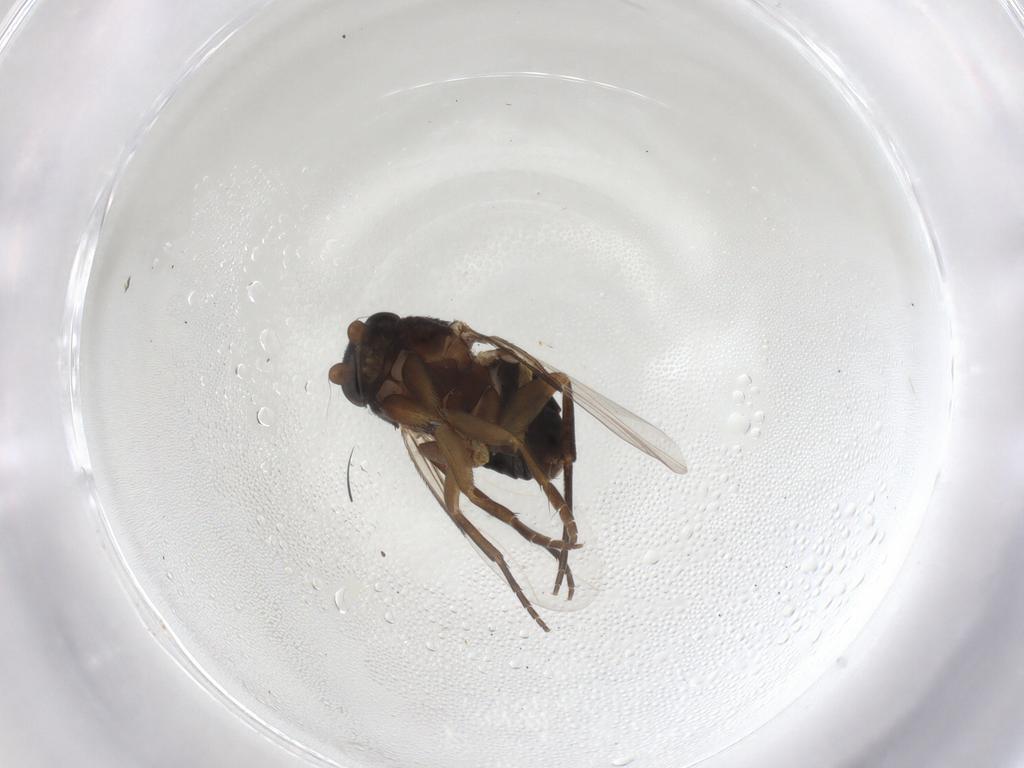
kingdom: Animalia
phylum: Arthropoda
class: Insecta
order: Diptera
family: Phoridae
